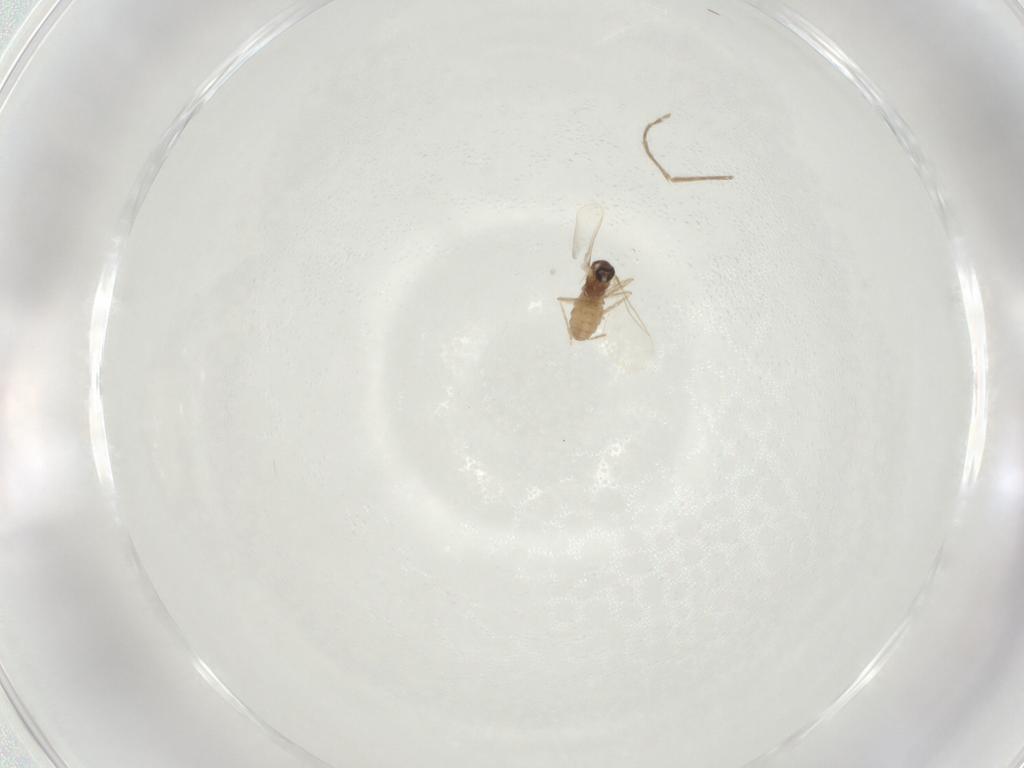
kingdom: Animalia
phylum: Arthropoda
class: Insecta
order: Diptera
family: Cecidomyiidae
